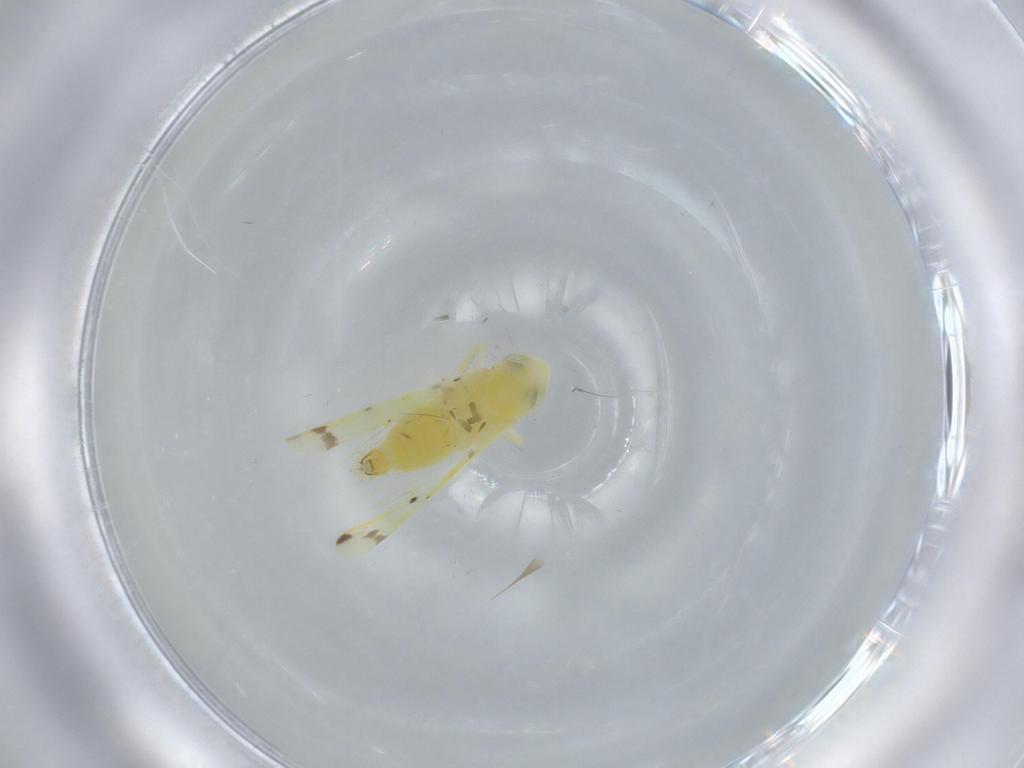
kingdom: Animalia
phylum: Arthropoda
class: Insecta
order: Hemiptera
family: Cicadellidae
